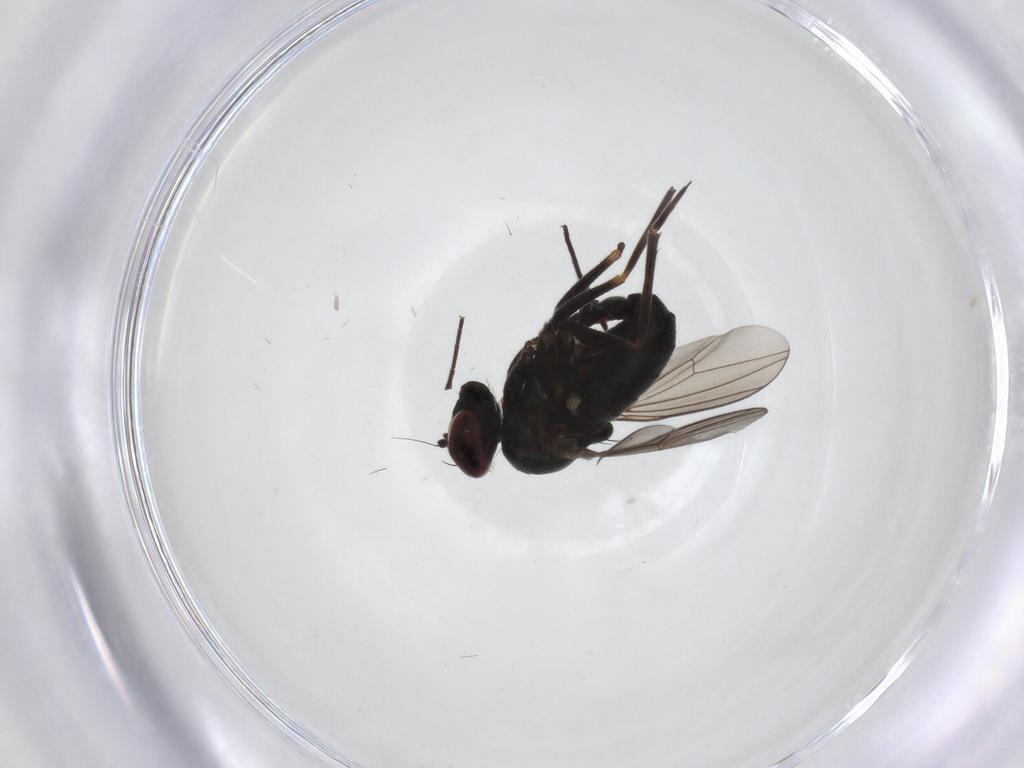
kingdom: Animalia
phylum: Arthropoda
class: Insecta
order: Diptera
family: Tipulidae
